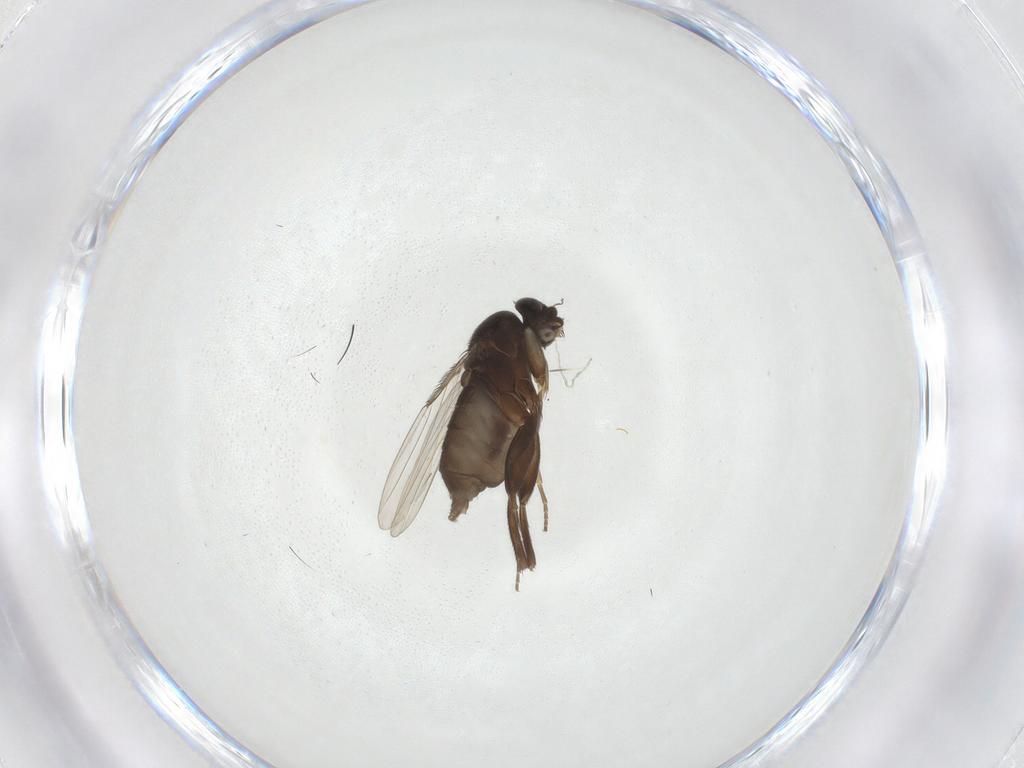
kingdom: Animalia
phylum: Arthropoda
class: Insecta
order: Diptera
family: Phoridae
